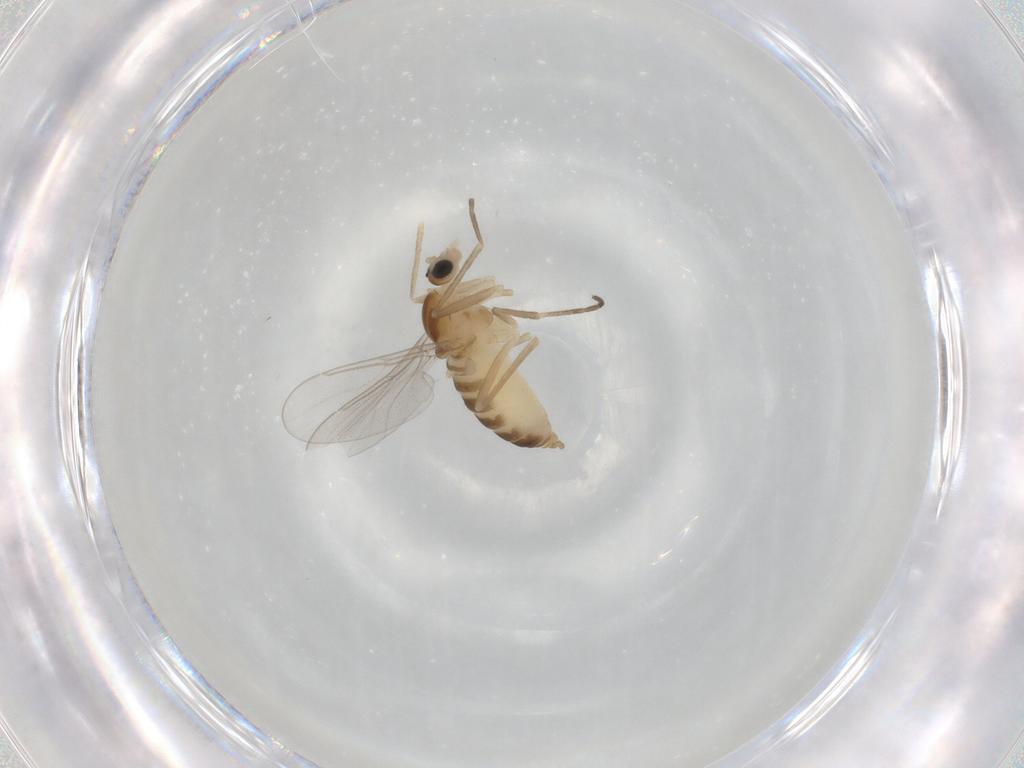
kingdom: Animalia
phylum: Arthropoda
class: Insecta
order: Diptera
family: Cecidomyiidae
